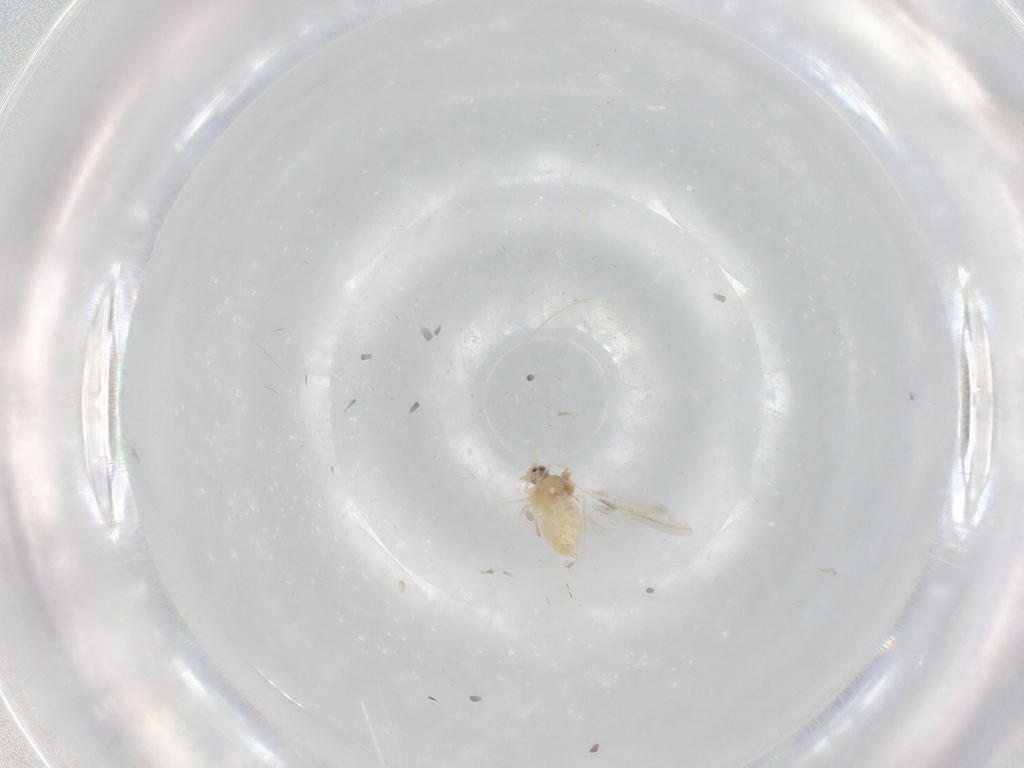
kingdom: Animalia
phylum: Arthropoda
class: Insecta
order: Diptera
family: Cecidomyiidae
